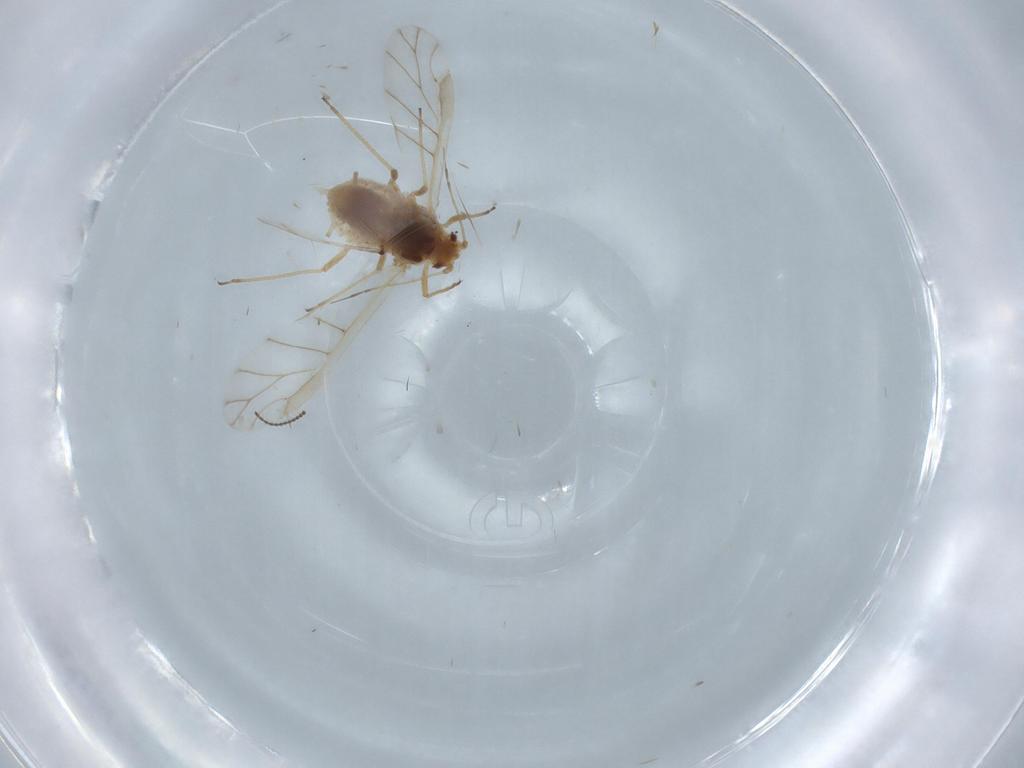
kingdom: Animalia
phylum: Arthropoda
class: Insecta
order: Hemiptera
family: Aphididae
